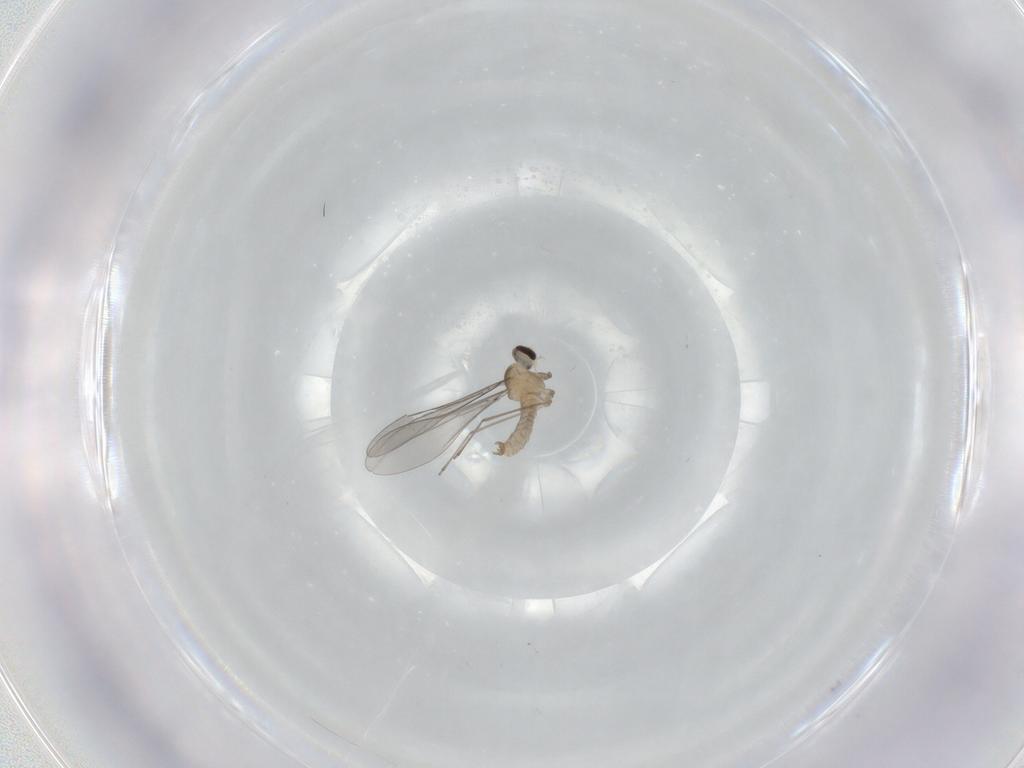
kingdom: Animalia
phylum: Arthropoda
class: Insecta
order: Diptera
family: Cecidomyiidae
